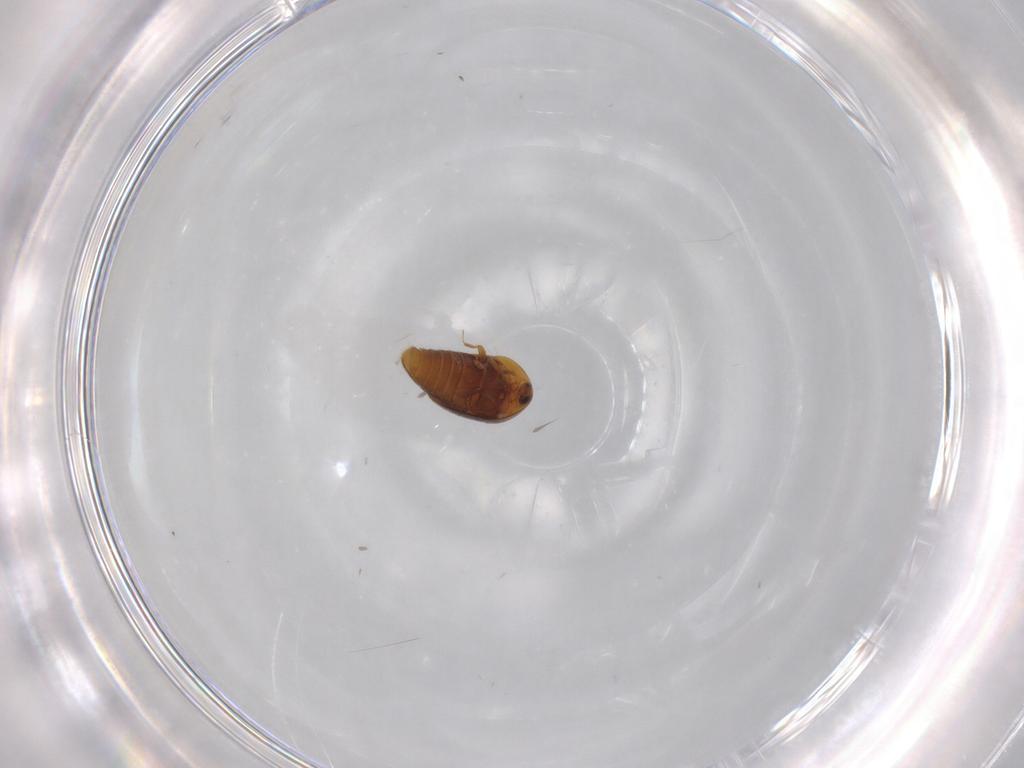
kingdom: Animalia
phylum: Arthropoda
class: Insecta
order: Coleoptera
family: Corylophidae
